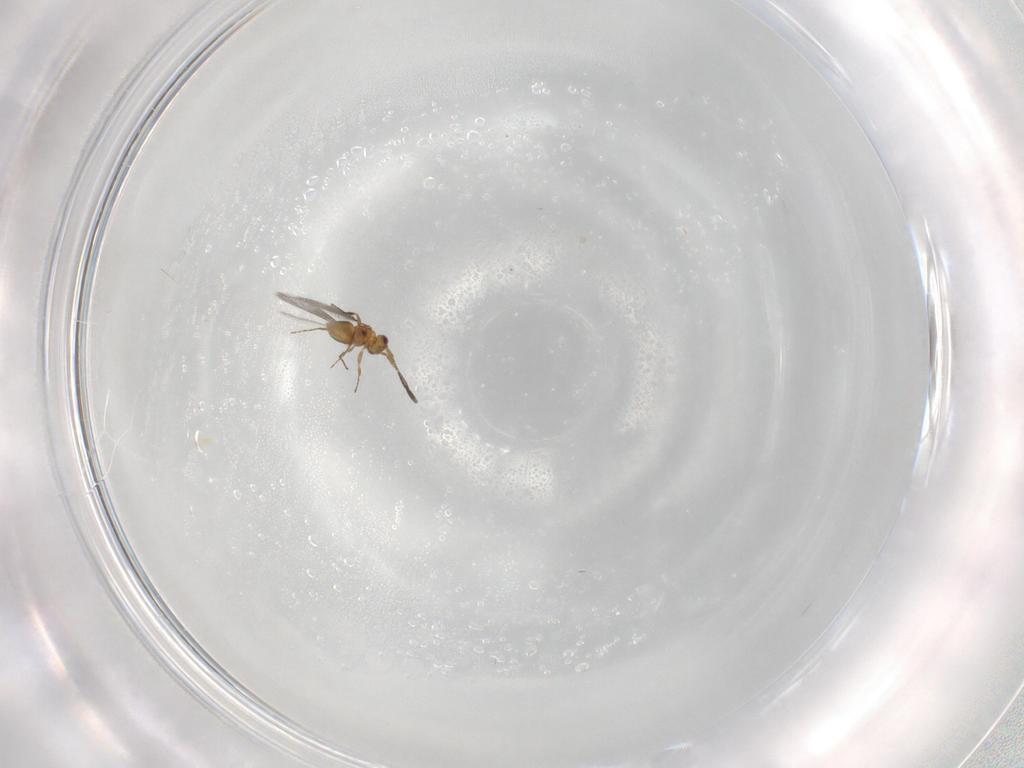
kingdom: Animalia
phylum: Arthropoda
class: Insecta
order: Hymenoptera
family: Mymaridae
